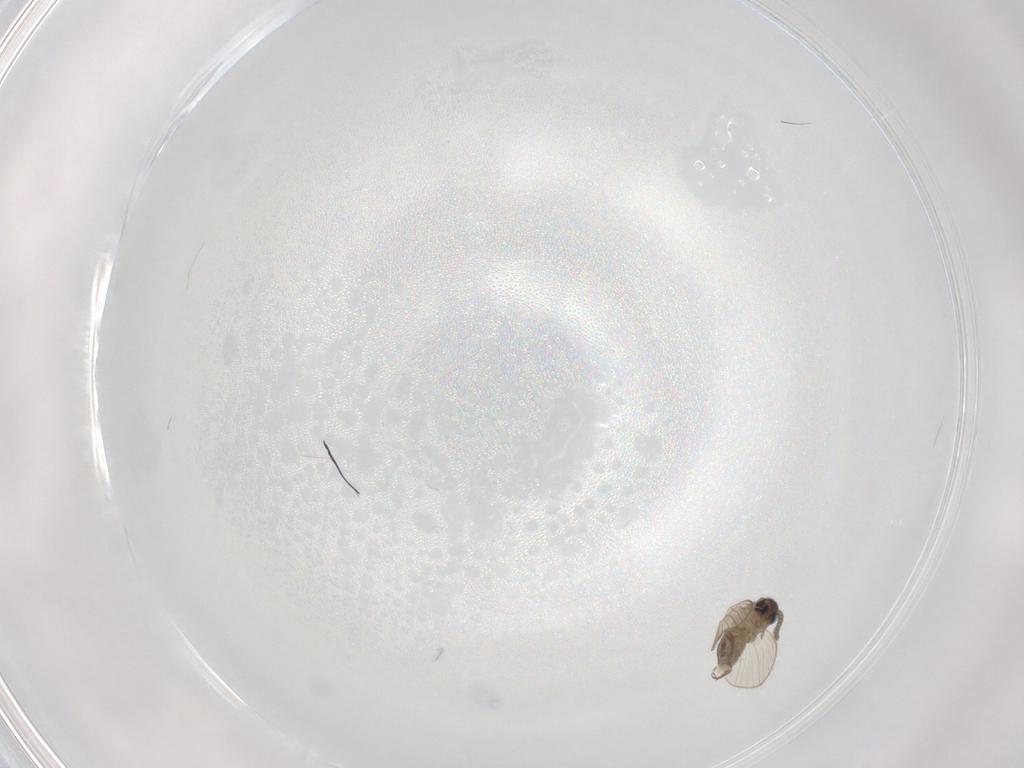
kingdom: Animalia
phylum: Arthropoda
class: Insecta
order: Diptera
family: Psychodidae
